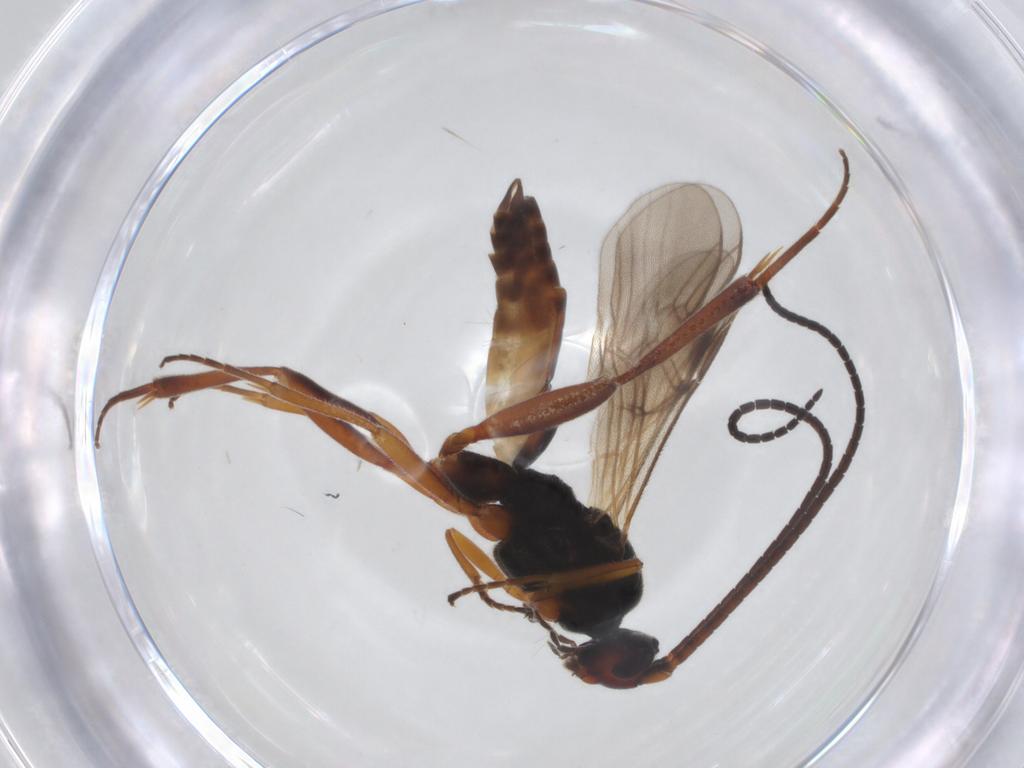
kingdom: Animalia
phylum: Arthropoda
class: Insecta
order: Hymenoptera
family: Braconidae
